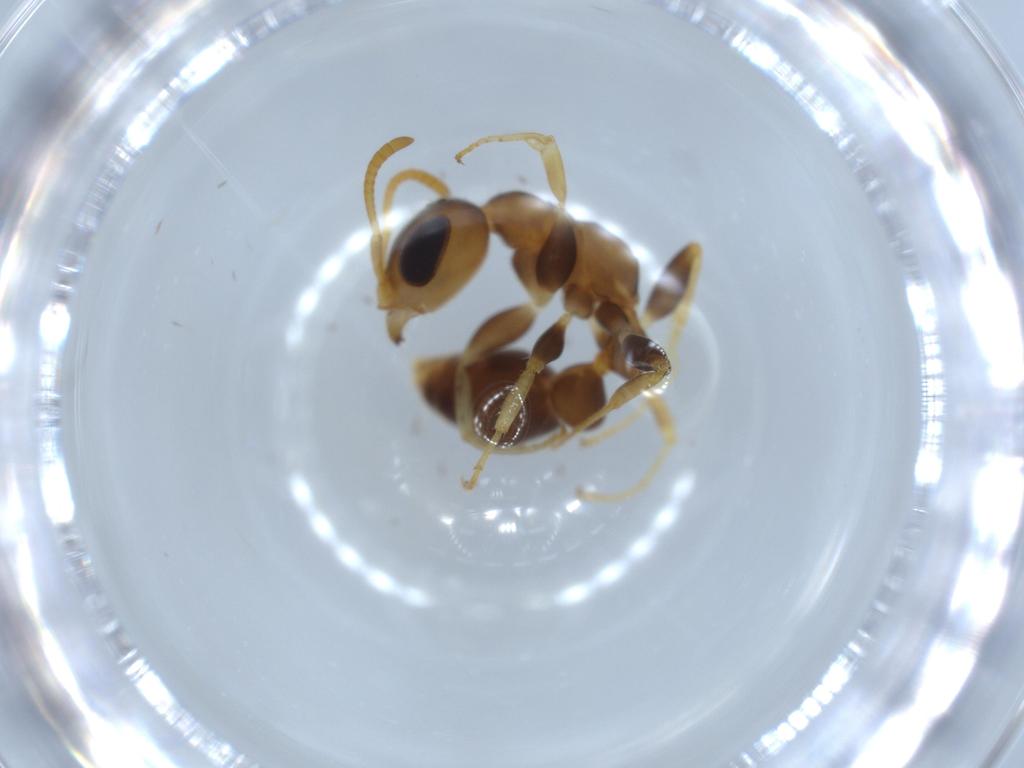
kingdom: Animalia
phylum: Arthropoda
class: Insecta
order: Hymenoptera
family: Formicidae
